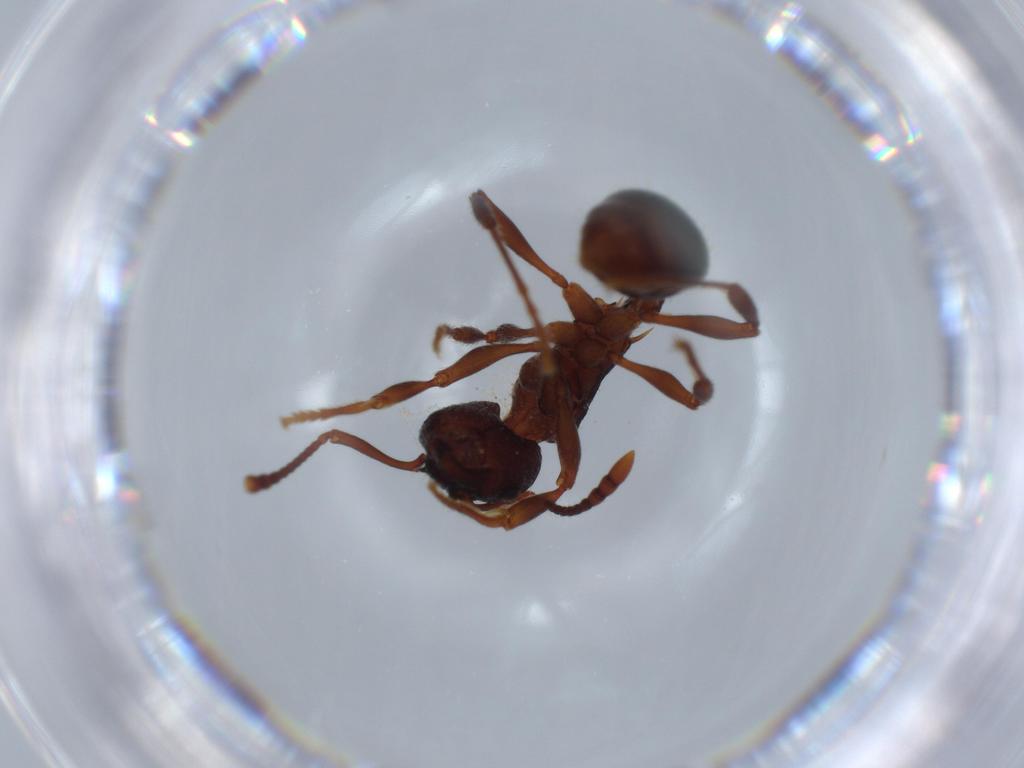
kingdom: Animalia
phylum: Arthropoda
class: Insecta
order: Hymenoptera
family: Formicidae
